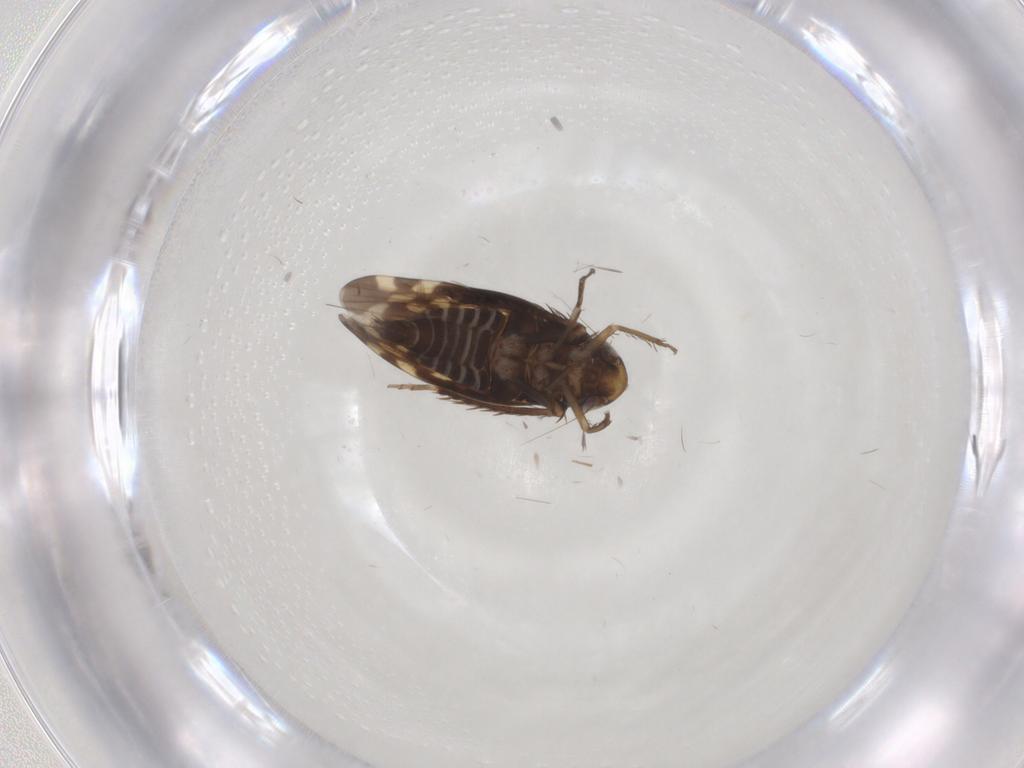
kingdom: Animalia
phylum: Arthropoda
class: Insecta
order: Hemiptera
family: Cicadellidae
